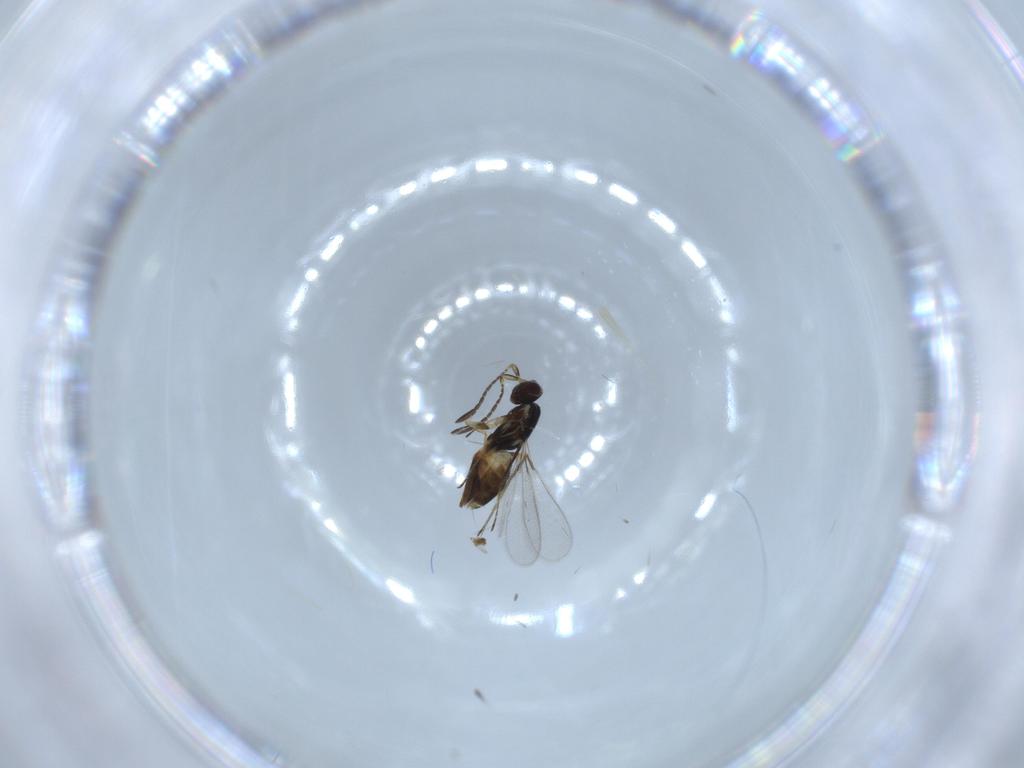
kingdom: Animalia
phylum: Arthropoda
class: Insecta
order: Hymenoptera
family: Mymaridae
